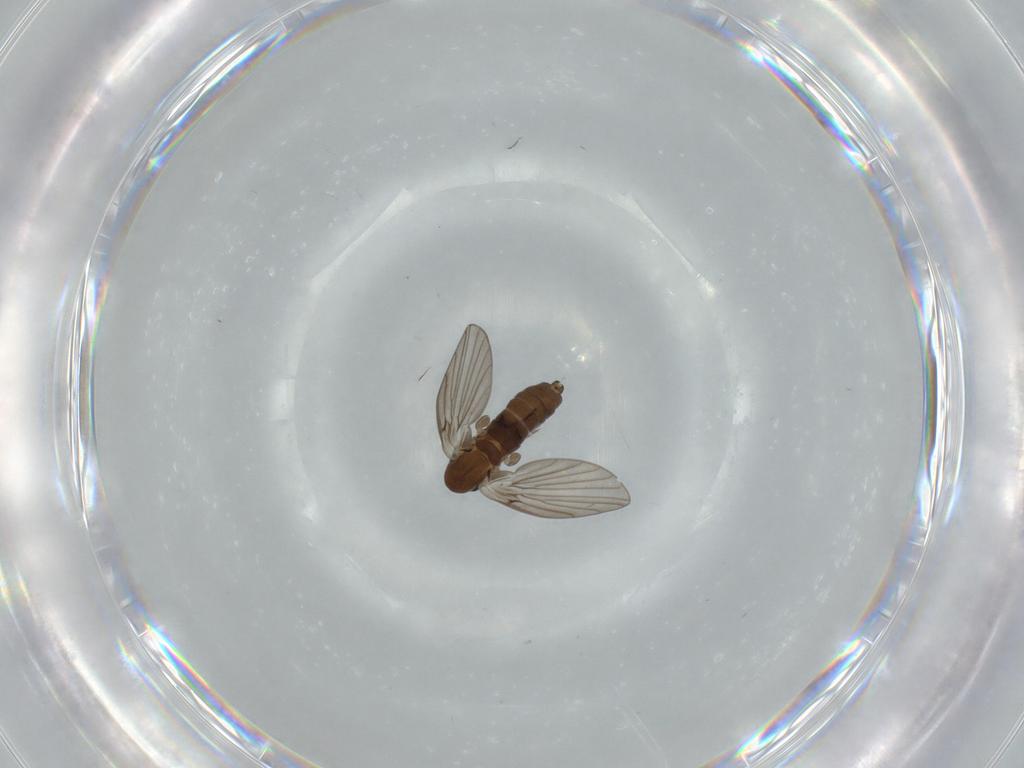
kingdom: Animalia
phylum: Arthropoda
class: Insecta
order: Diptera
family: Psychodidae
